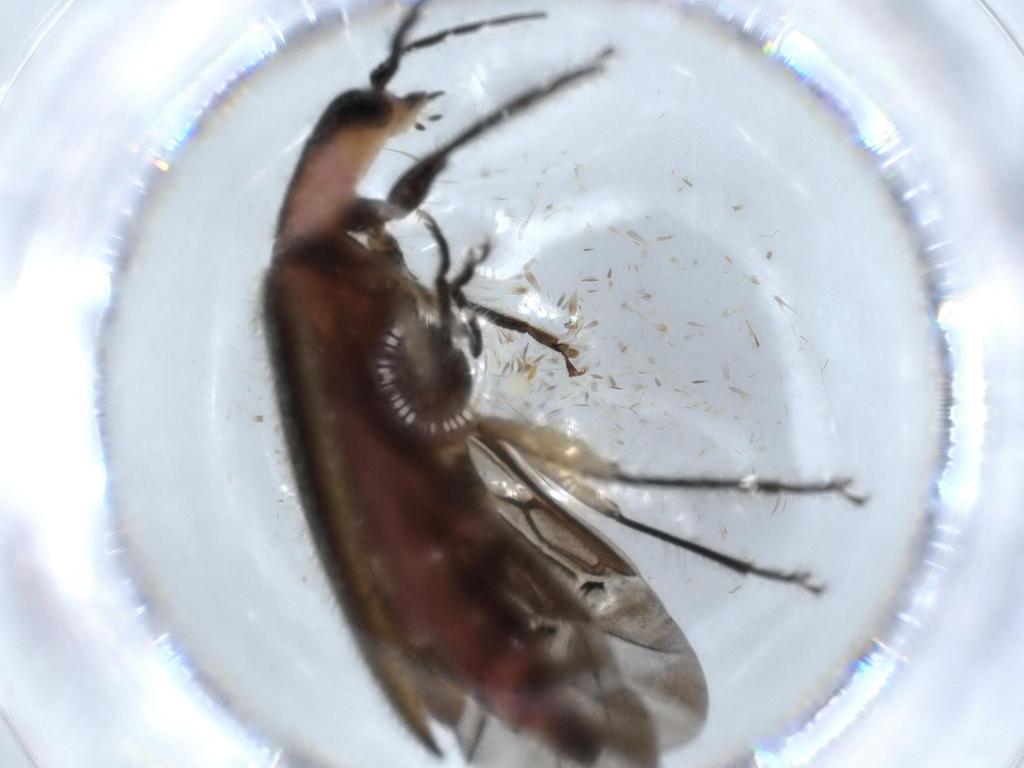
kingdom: Animalia
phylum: Arthropoda
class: Insecta
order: Coleoptera
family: Cleridae
